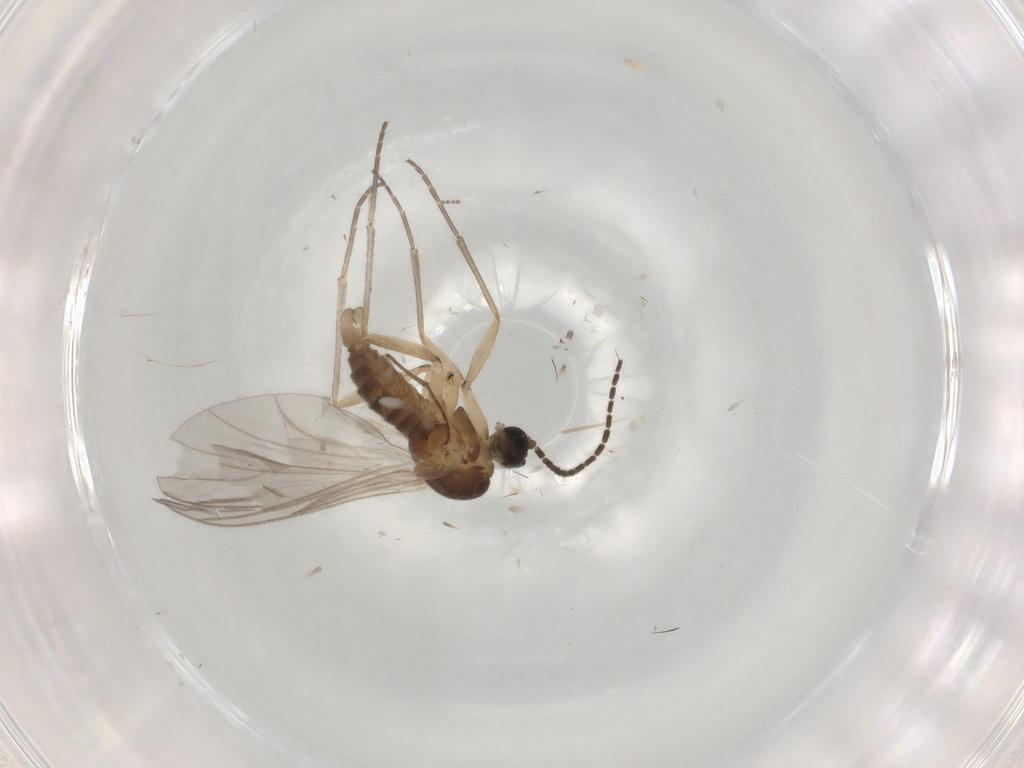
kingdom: Animalia
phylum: Arthropoda
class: Insecta
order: Diptera
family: Sciaridae
